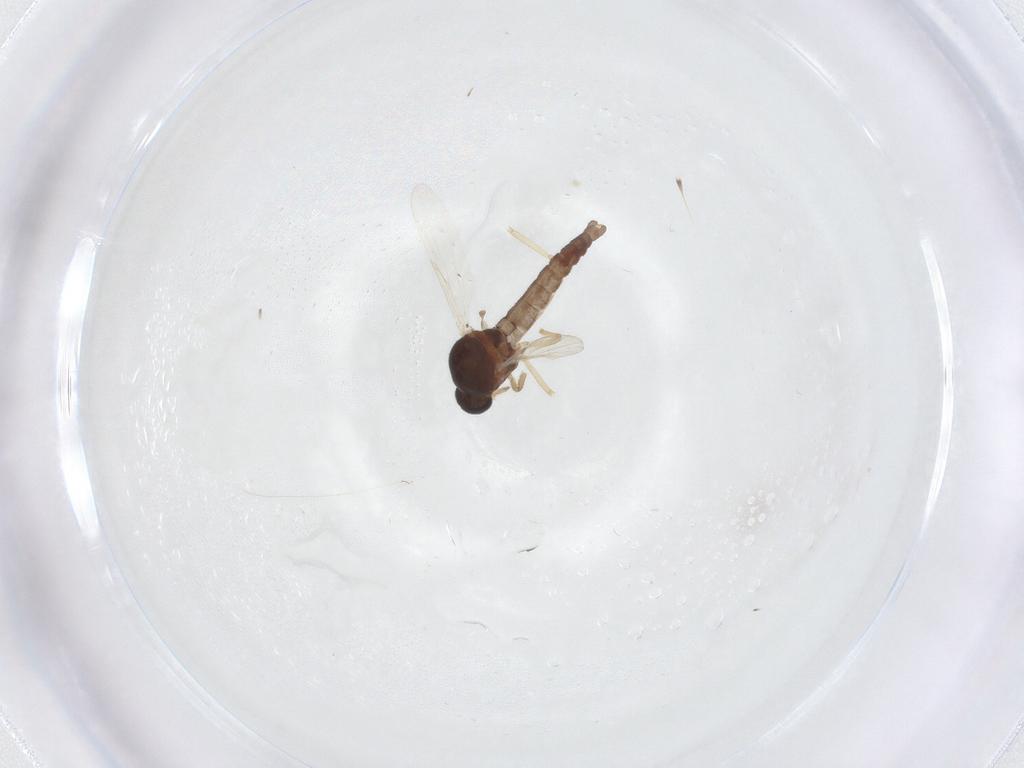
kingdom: Animalia
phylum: Arthropoda
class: Insecta
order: Diptera
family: Ceratopogonidae
